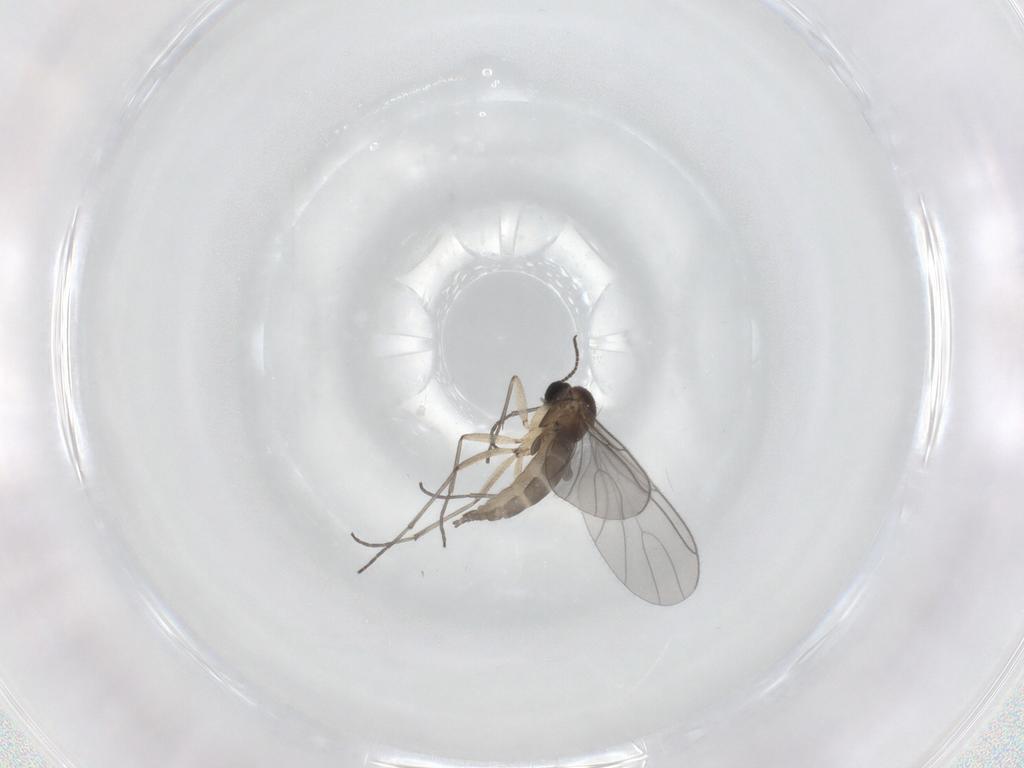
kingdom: Animalia
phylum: Arthropoda
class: Insecta
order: Diptera
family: Sciaridae
